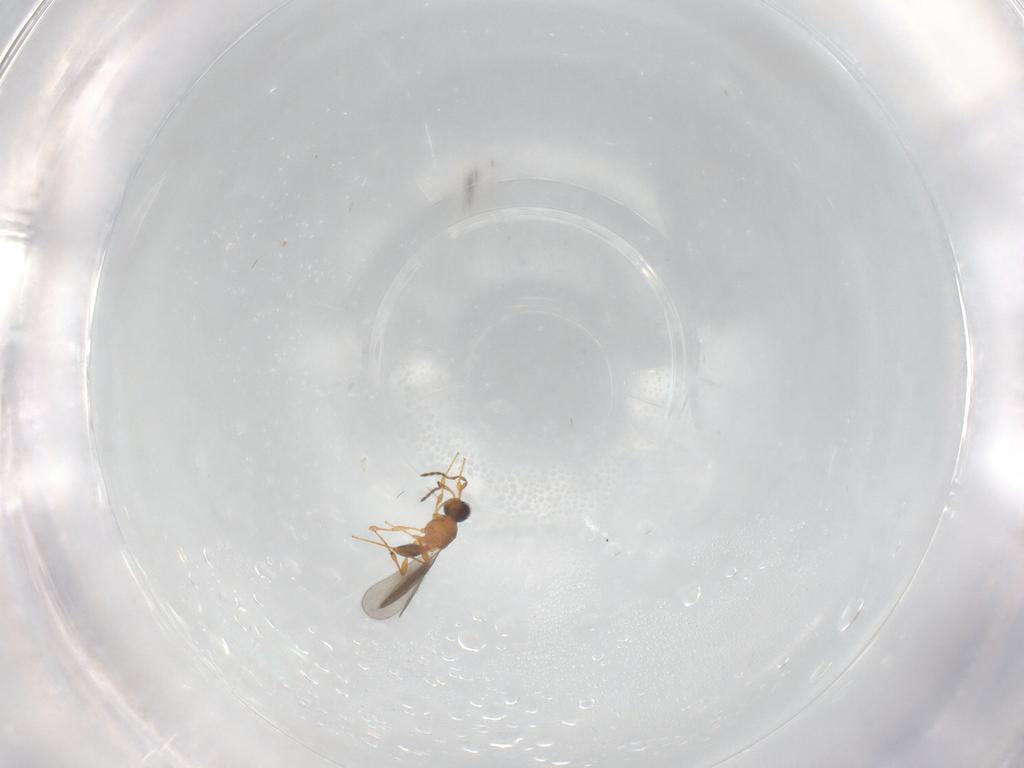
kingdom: Animalia
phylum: Arthropoda
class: Insecta
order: Hymenoptera
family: Platygastridae
